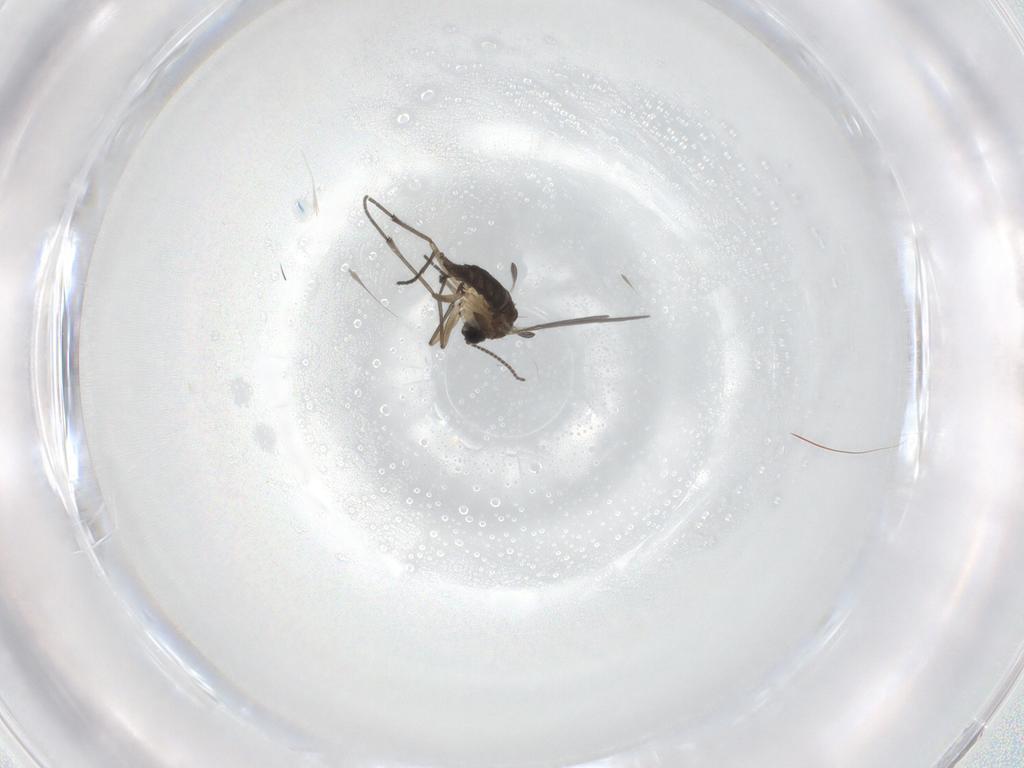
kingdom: Animalia
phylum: Arthropoda
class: Insecta
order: Diptera
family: Sciaridae
